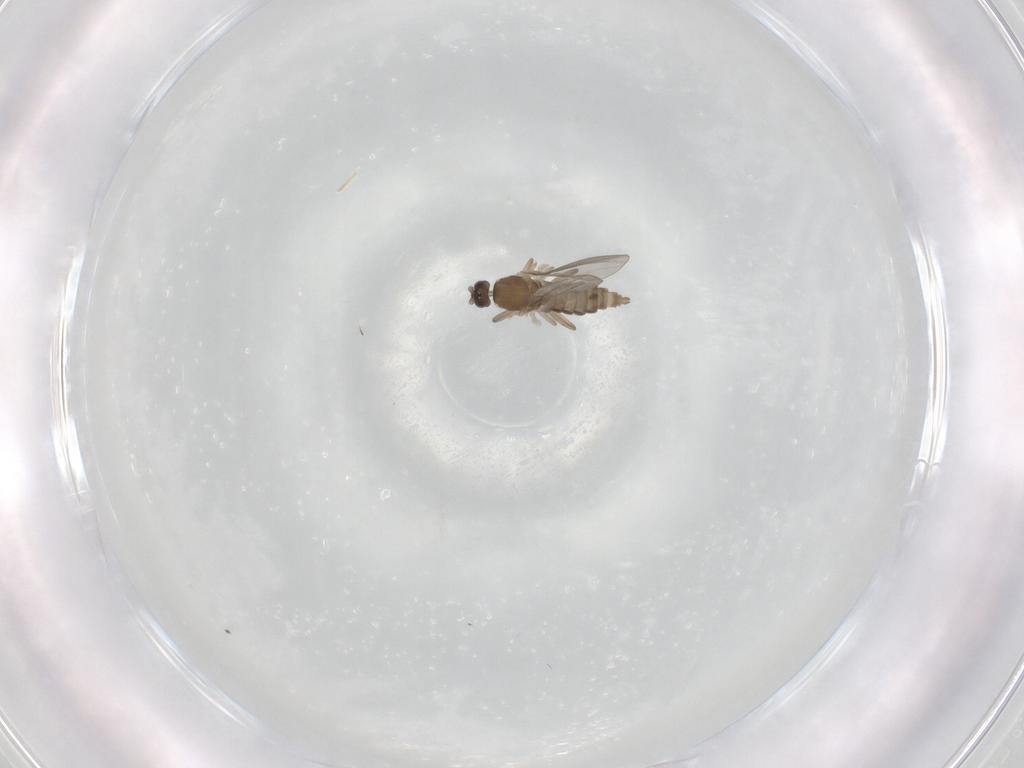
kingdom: Animalia
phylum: Arthropoda
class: Insecta
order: Diptera
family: Cecidomyiidae
